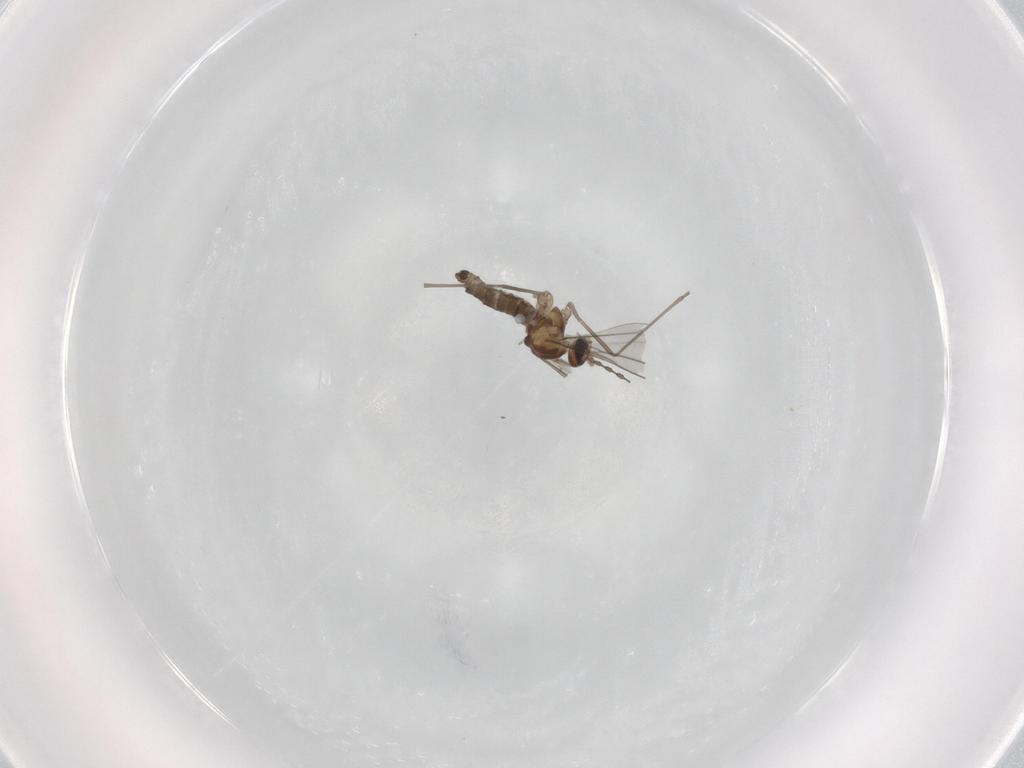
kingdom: Animalia
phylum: Arthropoda
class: Insecta
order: Diptera
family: Cecidomyiidae
